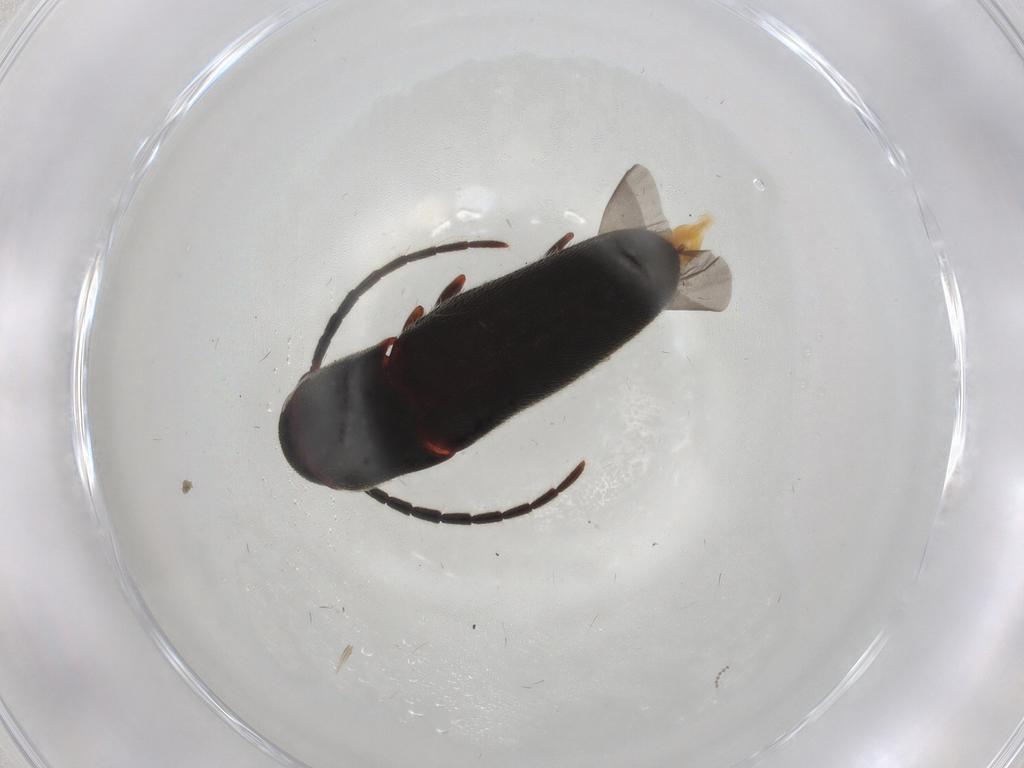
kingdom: Animalia
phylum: Arthropoda
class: Insecta
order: Coleoptera
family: Eucnemidae
